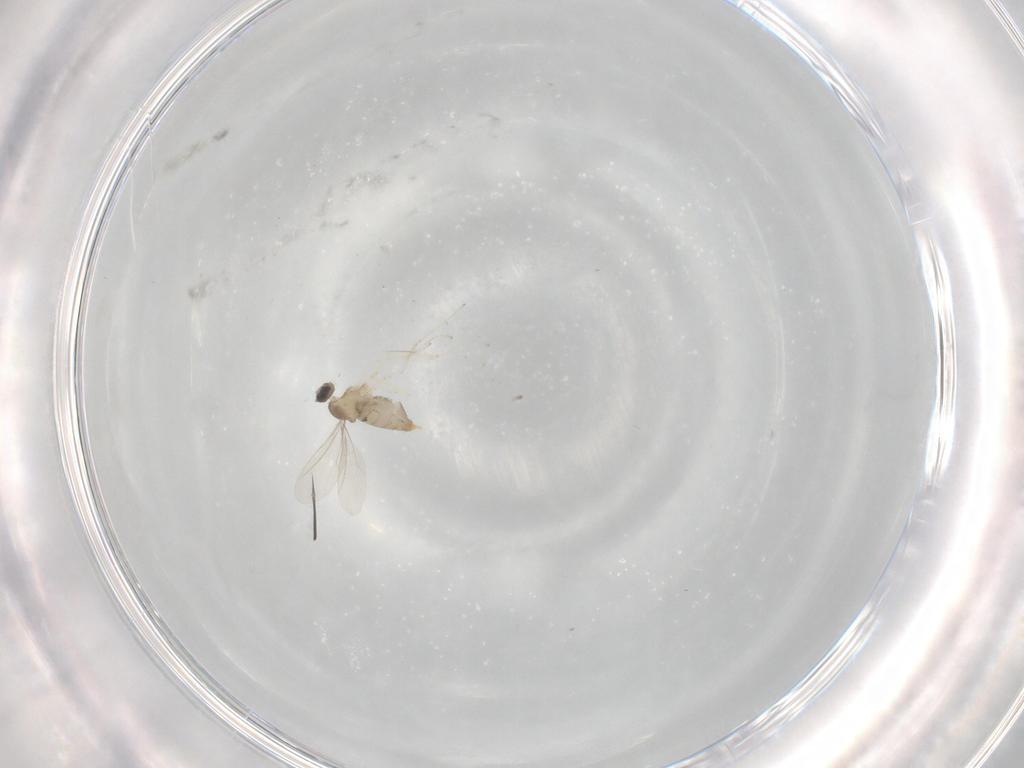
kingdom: Animalia
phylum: Arthropoda
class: Insecta
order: Diptera
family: Cecidomyiidae
